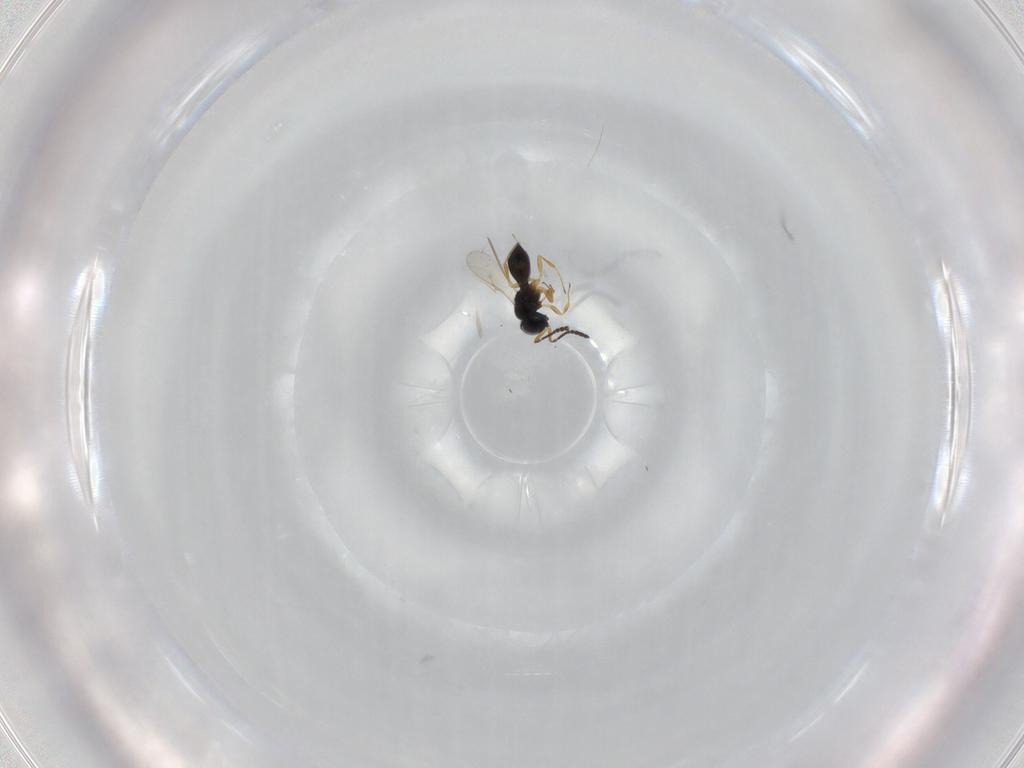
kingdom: Animalia
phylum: Arthropoda
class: Insecta
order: Hymenoptera
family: Scelionidae
